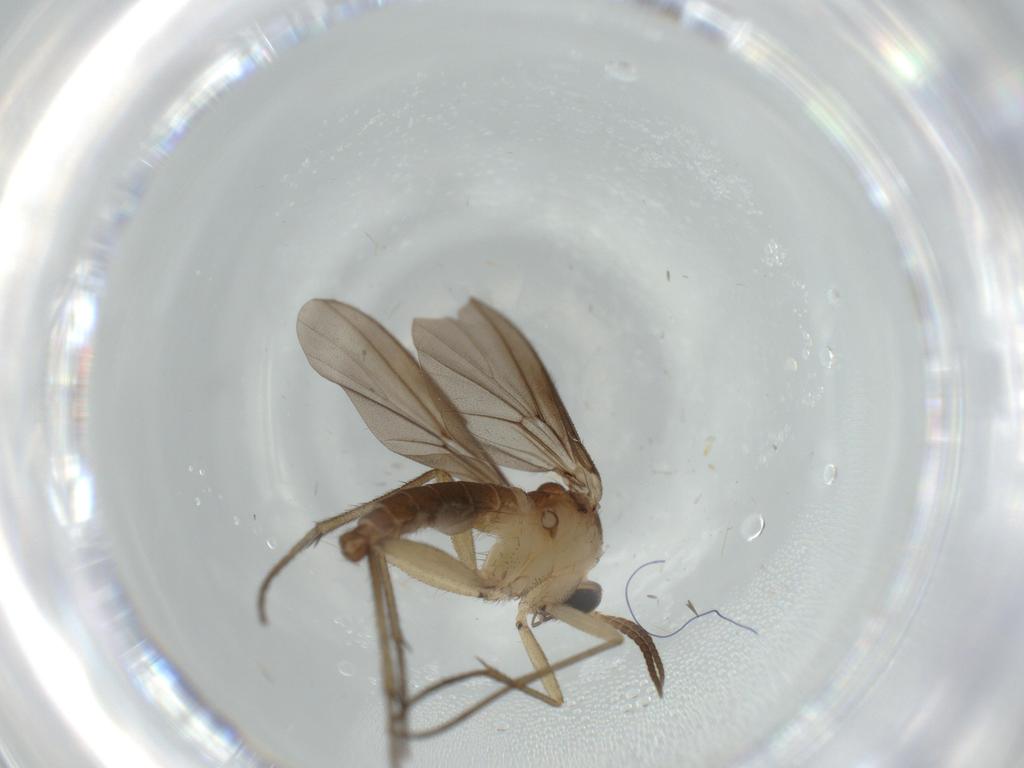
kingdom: Animalia
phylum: Arthropoda
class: Insecta
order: Diptera
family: Diadocidiidae
